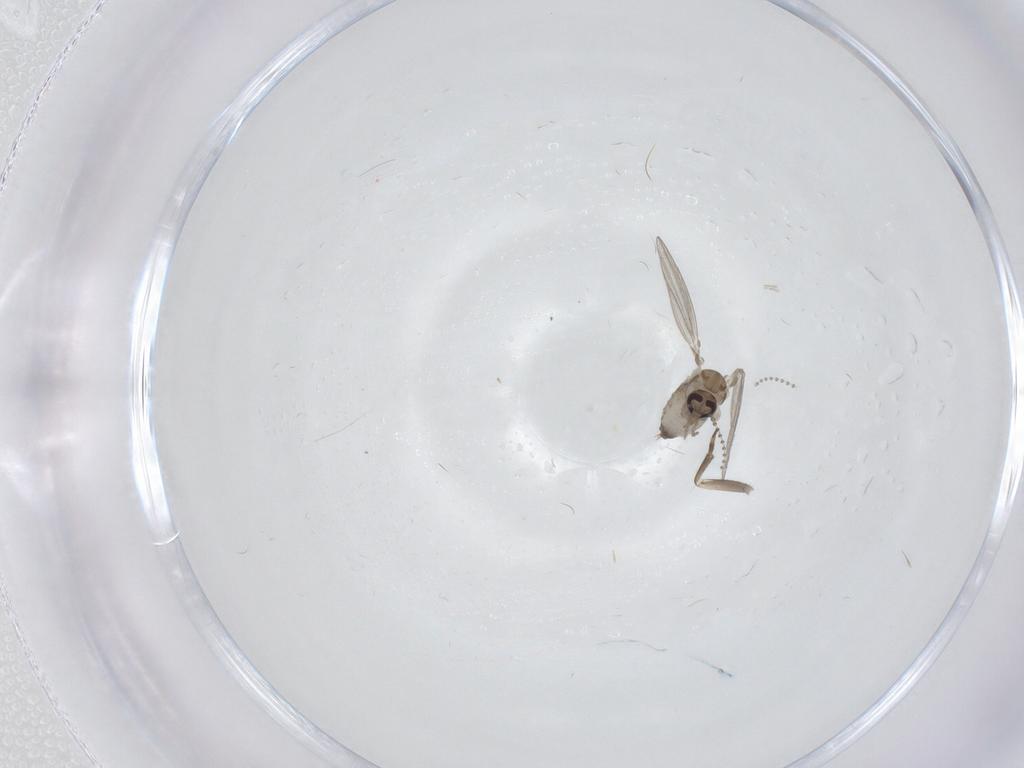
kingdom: Animalia
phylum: Arthropoda
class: Insecta
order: Diptera
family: Psychodidae
